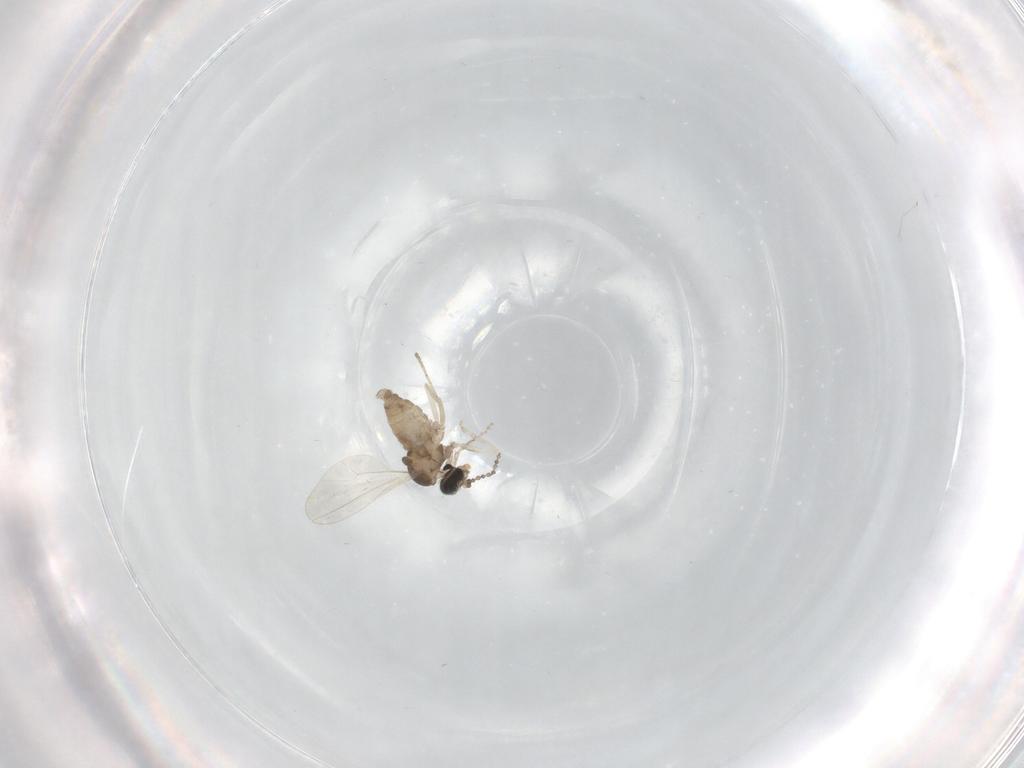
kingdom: Animalia
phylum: Arthropoda
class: Insecta
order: Diptera
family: Cecidomyiidae
